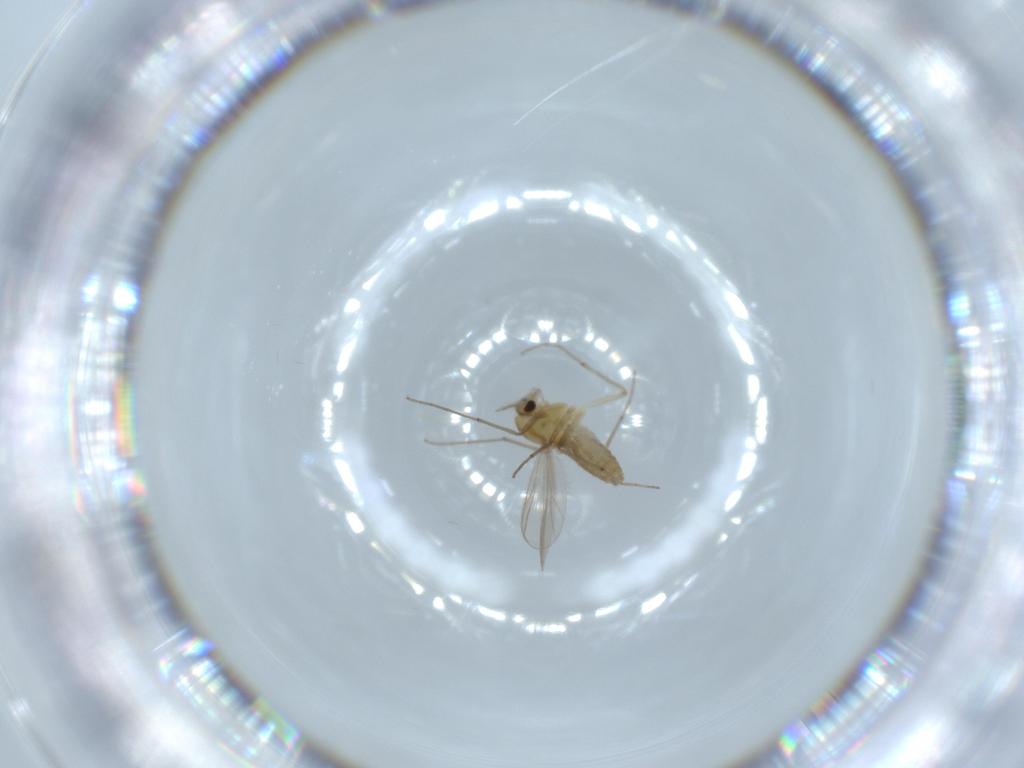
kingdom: Animalia
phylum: Arthropoda
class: Insecta
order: Diptera
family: Chironomidae
